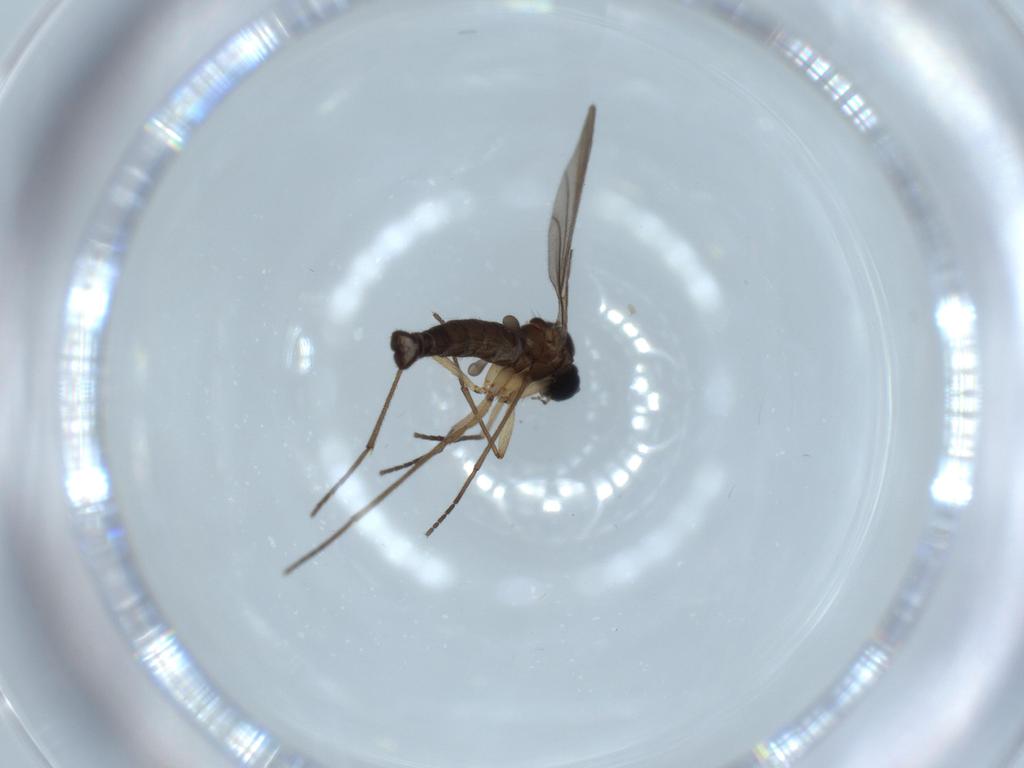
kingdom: Animalia
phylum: Arthropoda
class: Insecta
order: Diptera
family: Sciaridae
